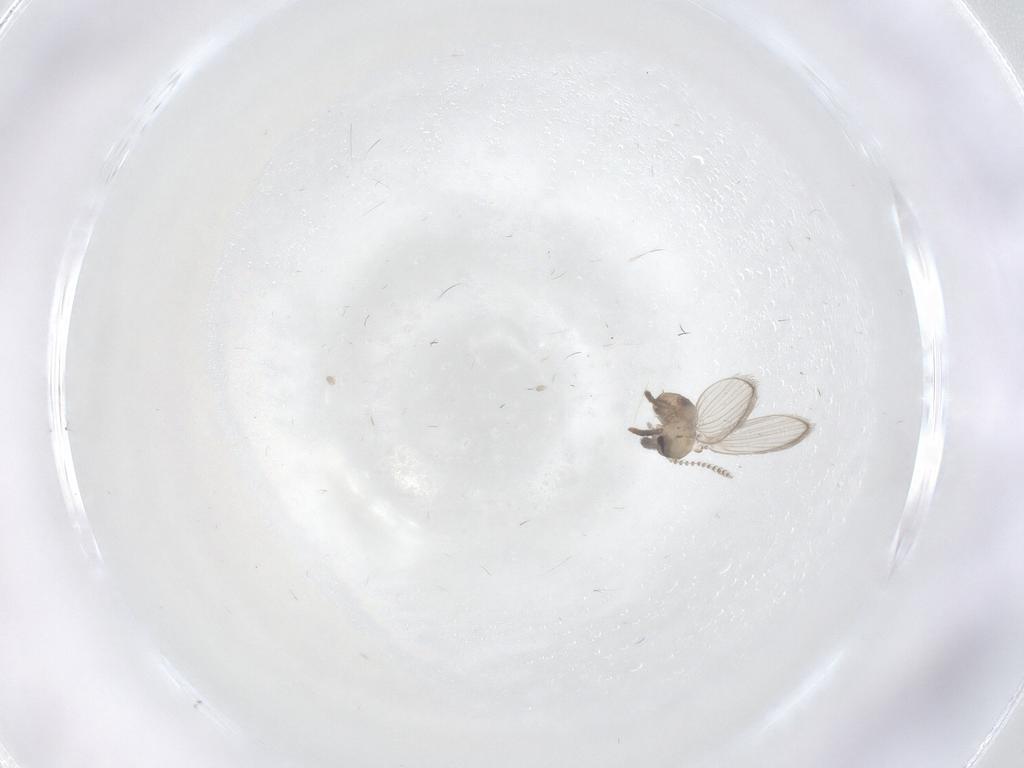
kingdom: Animalia
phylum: Arthropoda
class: Insecta
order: Diptera
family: Psychodidae
